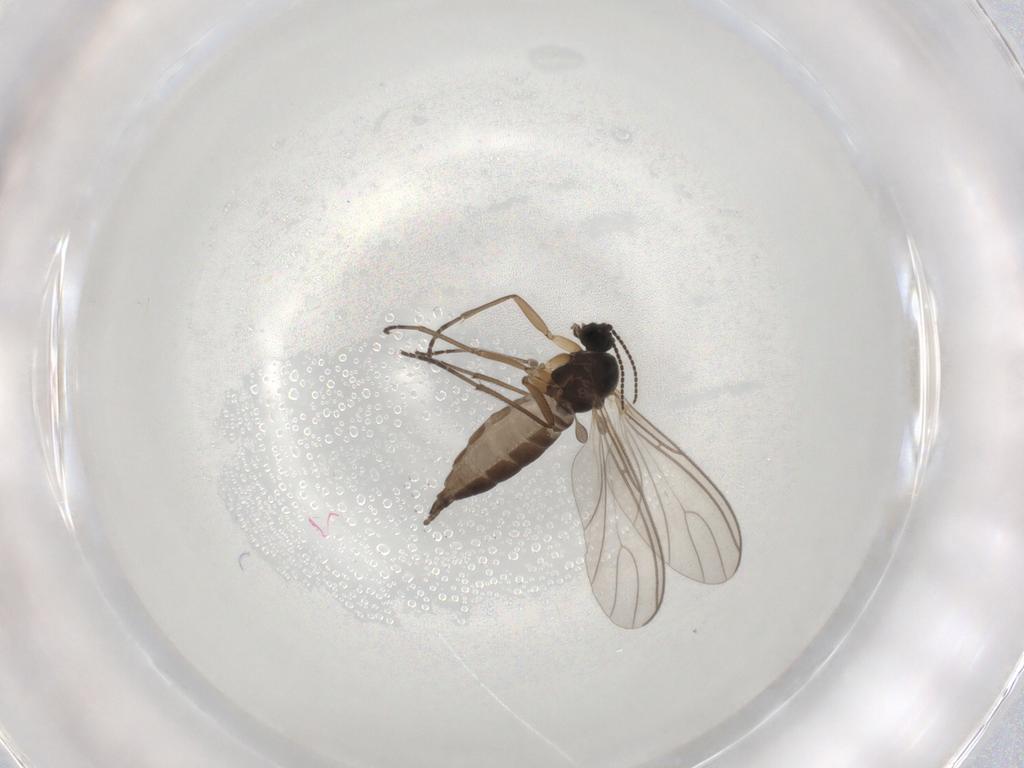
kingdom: Animalia
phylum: Arthropoda
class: Insecta
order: Diptera
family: Sciaridae
